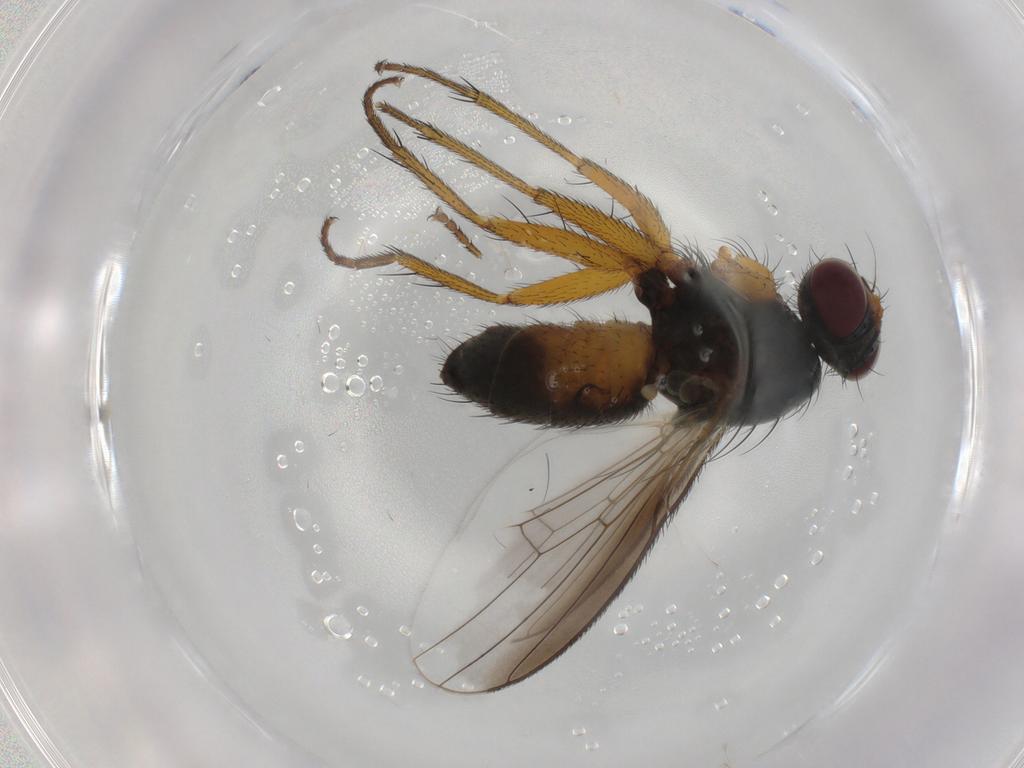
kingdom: Animalia
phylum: Arthropoda
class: Insecta
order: Diptera
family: Muscidae
